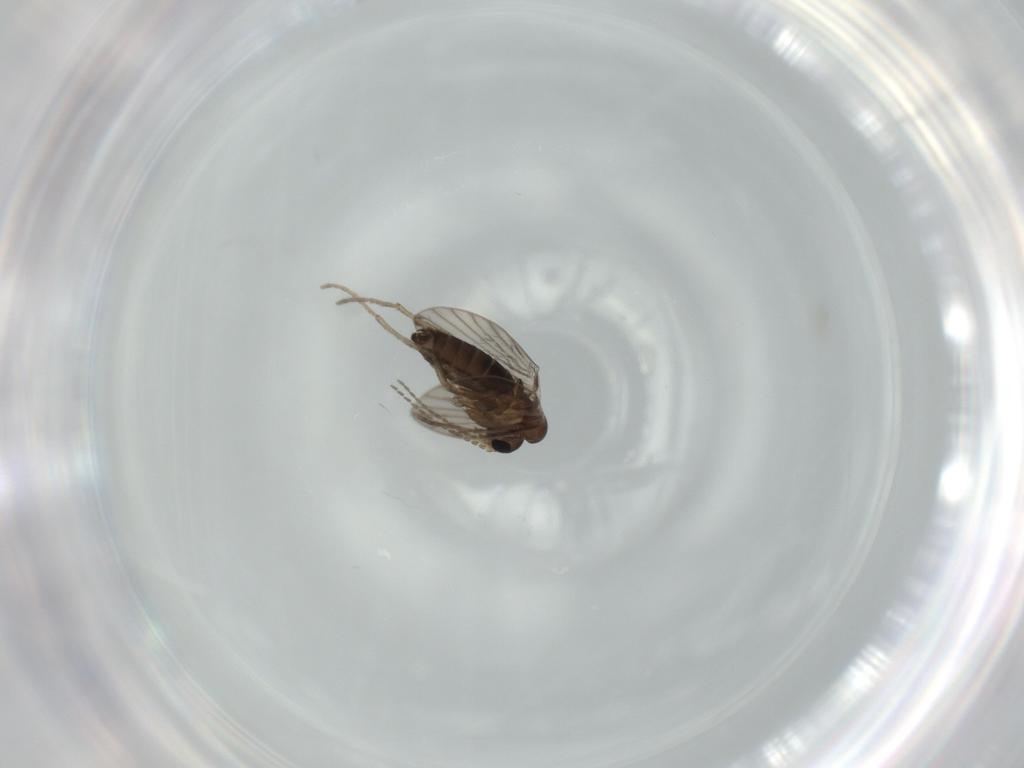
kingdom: Animalia
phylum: Arthropoda
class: Insecta
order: Diptera
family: Psychodidae
